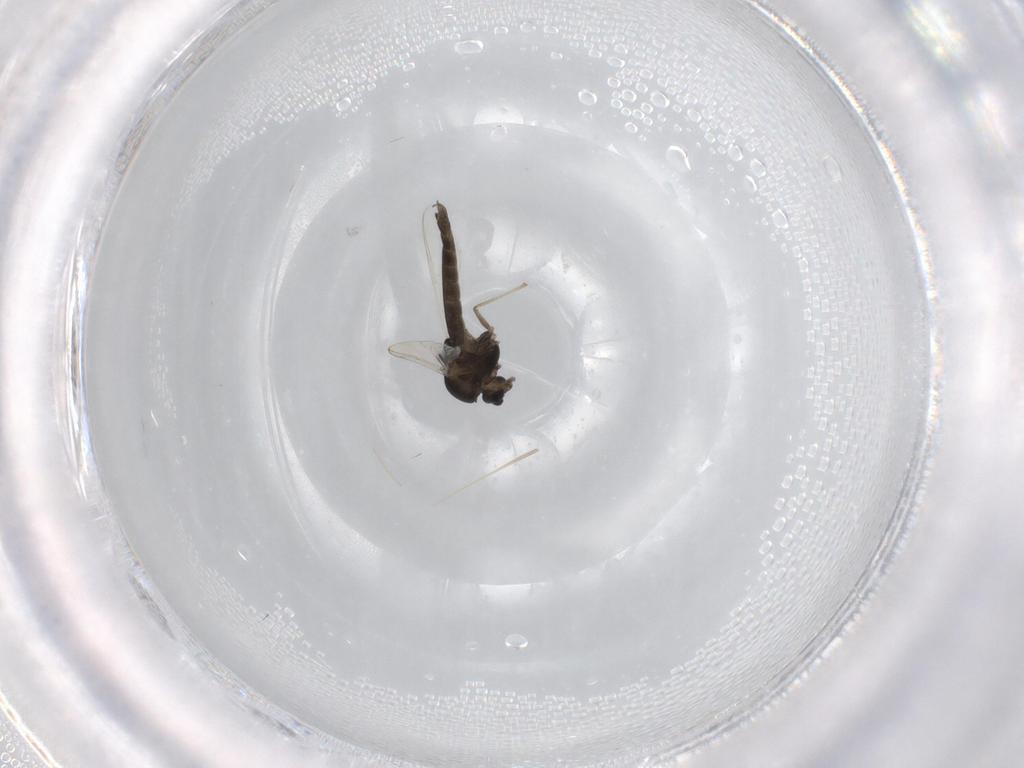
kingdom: Animalia
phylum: Arthropoda
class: Insecta
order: Diptera
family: Chironomidae
